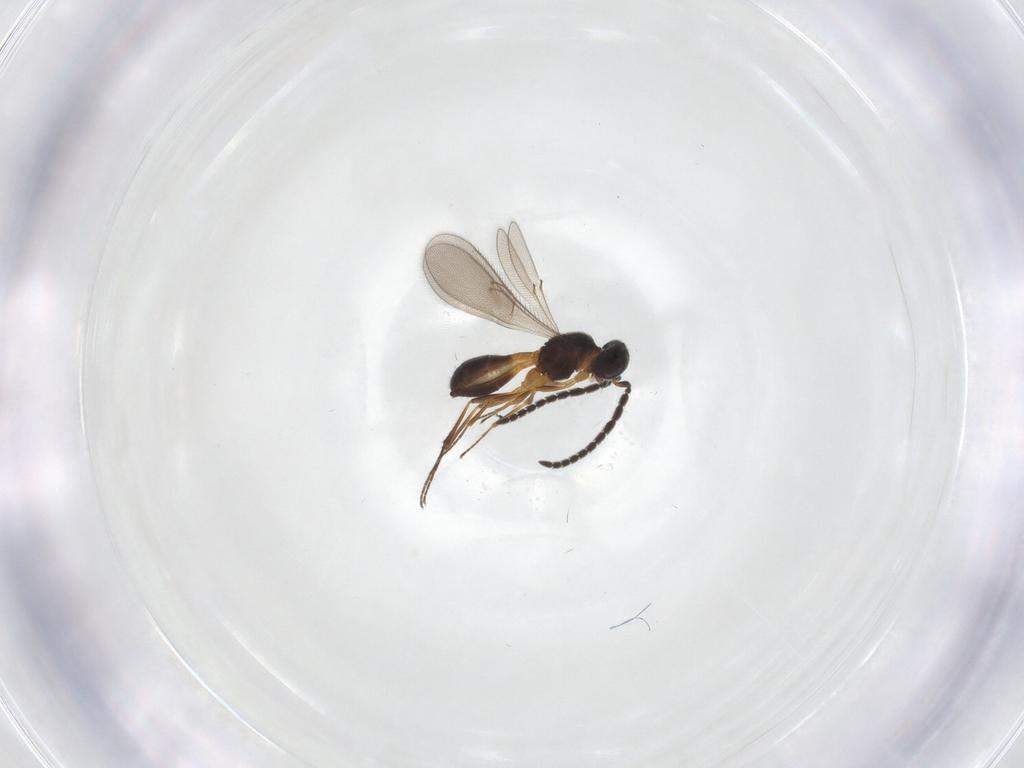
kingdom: Animalia
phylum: Arthropoda
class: Insecta
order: Hymenoptera
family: Scelionidae
